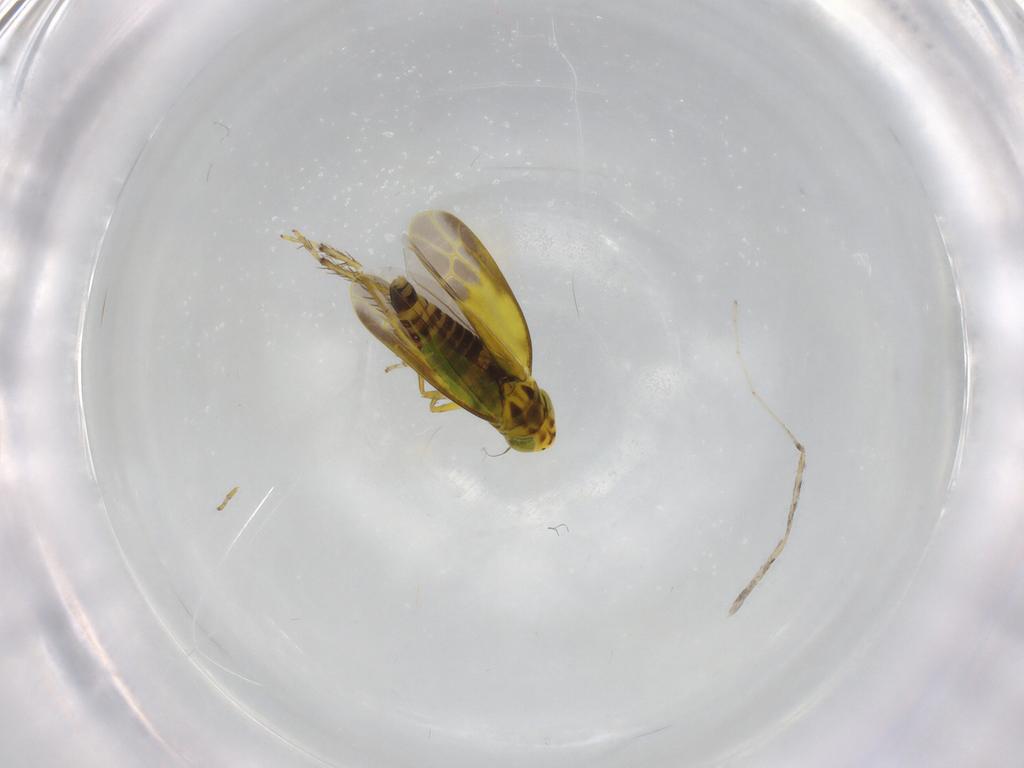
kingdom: Animalia
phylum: Arthropoda
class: Insecta
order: Hemiptera
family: Cicadellidae
